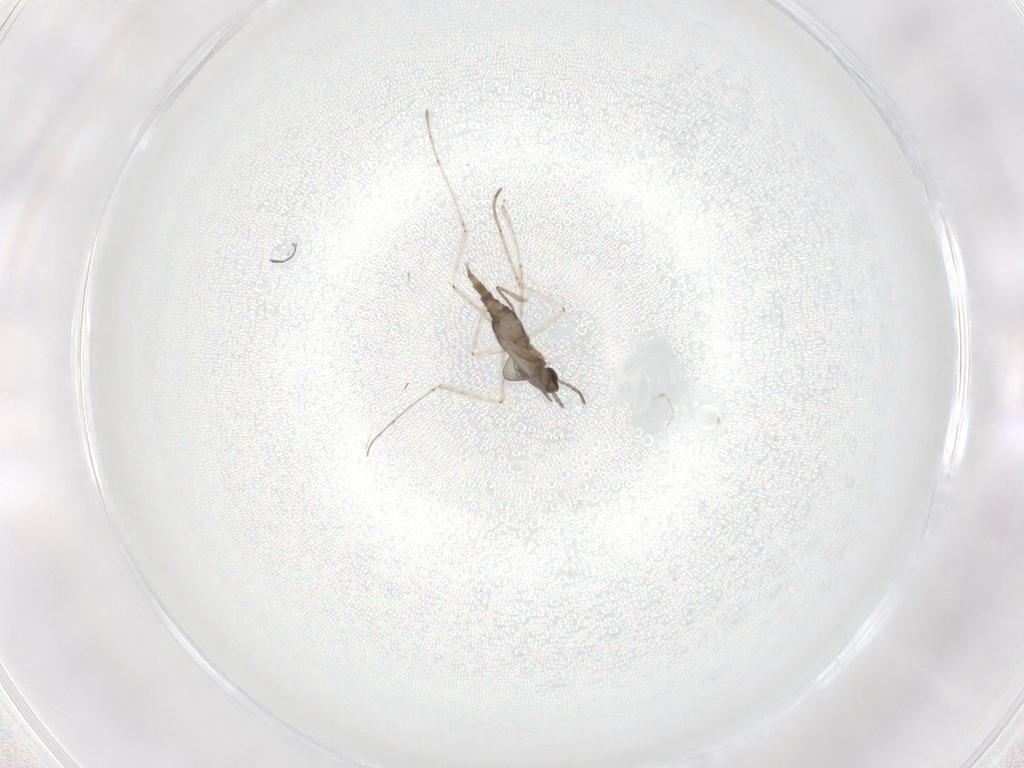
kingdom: Animalia
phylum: Arthropoda
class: Insecta
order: Diptera
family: Cecidomyiidae
